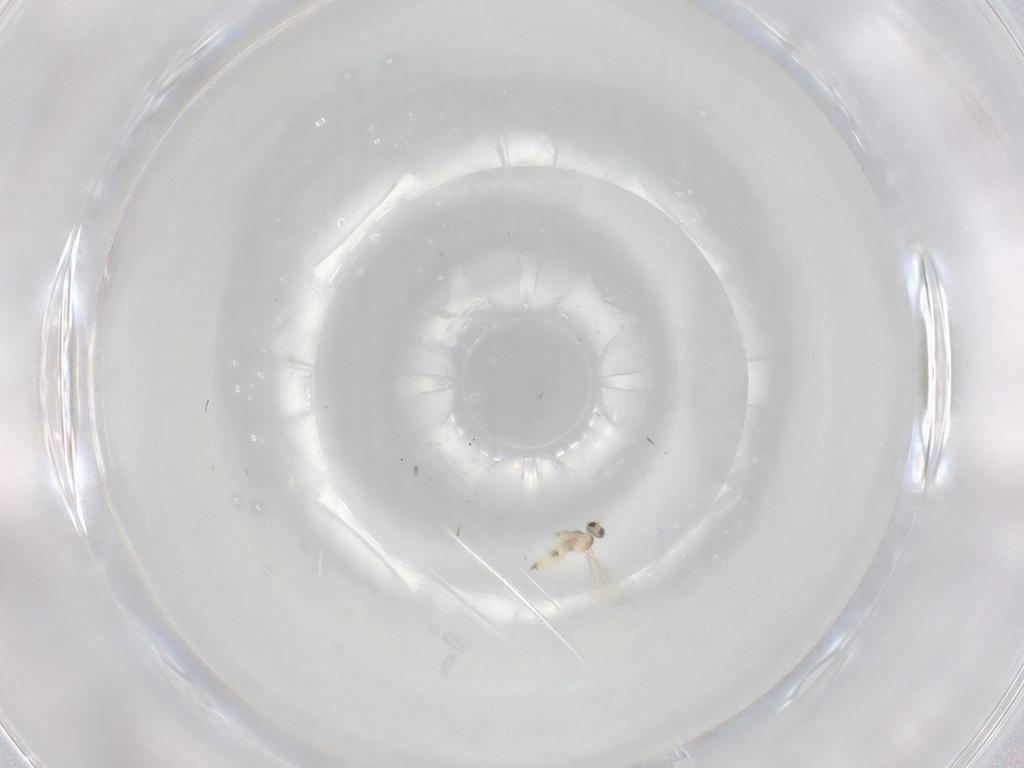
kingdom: Animalia
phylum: Arthropoda
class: Insecta
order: Diptera
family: Cecidomyiidae
